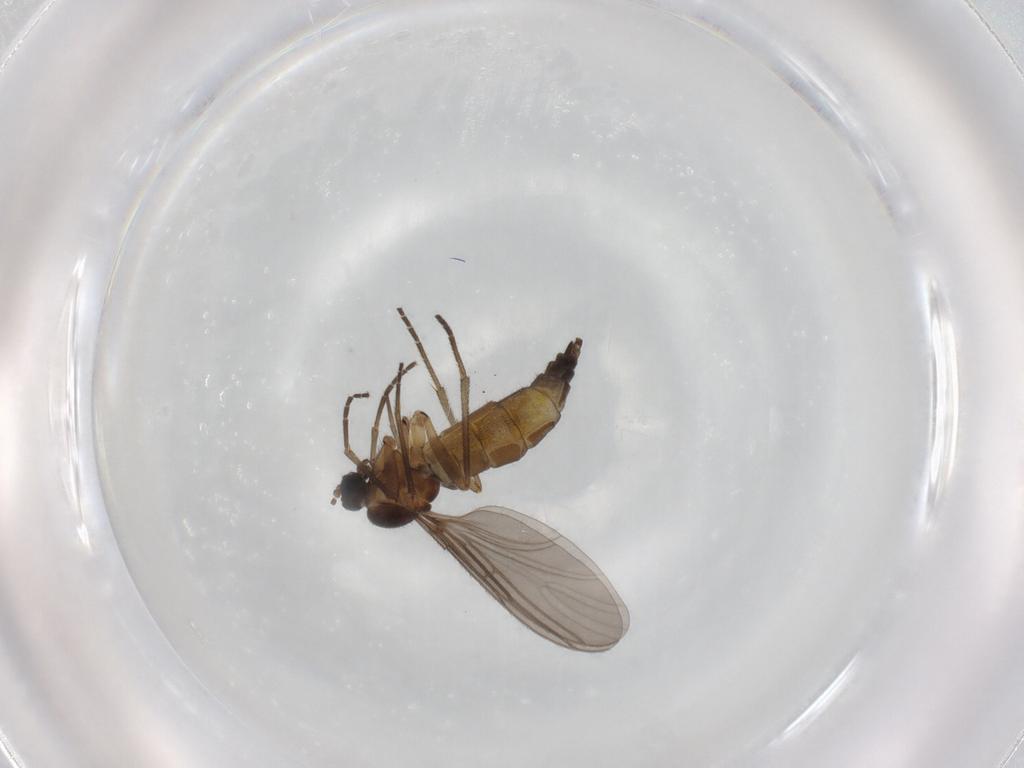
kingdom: Animalia
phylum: Arthropoda
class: Insecta
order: Diptera
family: Sciaridae
